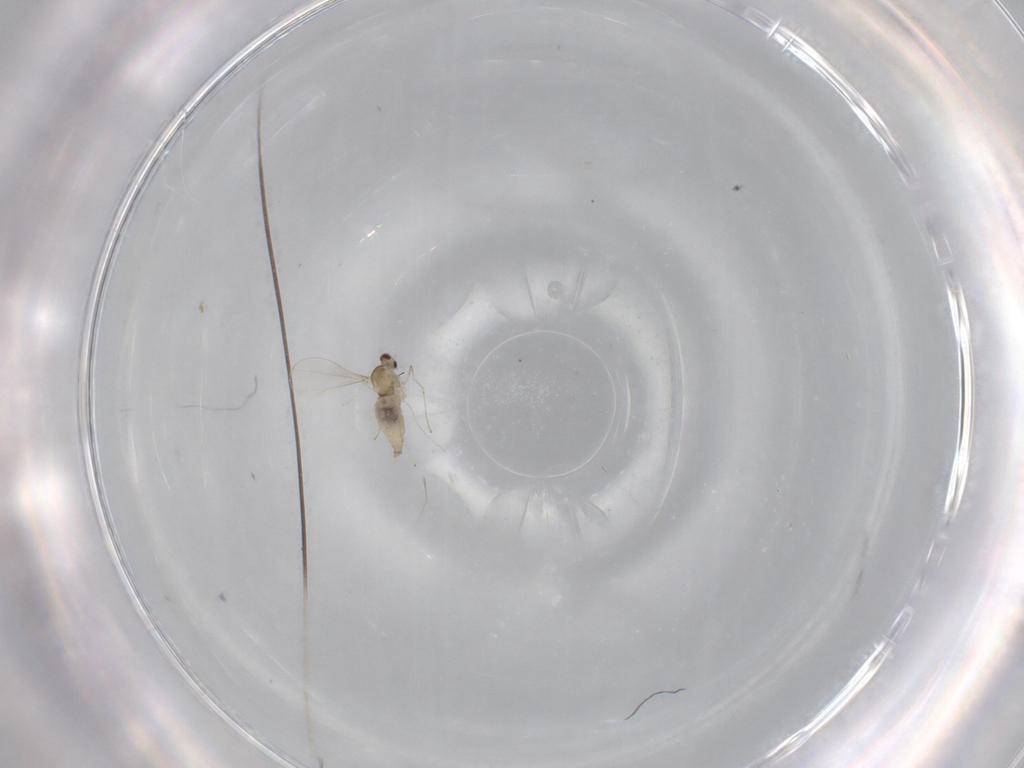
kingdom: Animalia
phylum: Arthropoda
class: Insecta
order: Diptera
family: Cecidomyiidae
